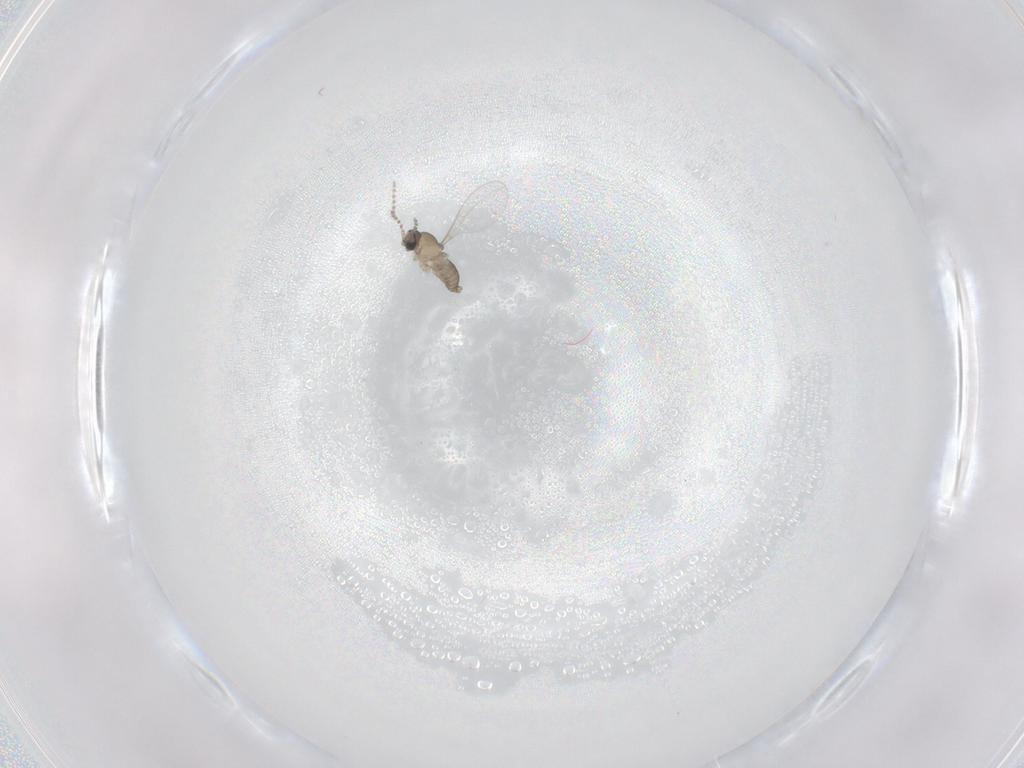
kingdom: Animalia
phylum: Arthropoda
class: Insecta
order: Diptera
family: Cecidomyiidae
